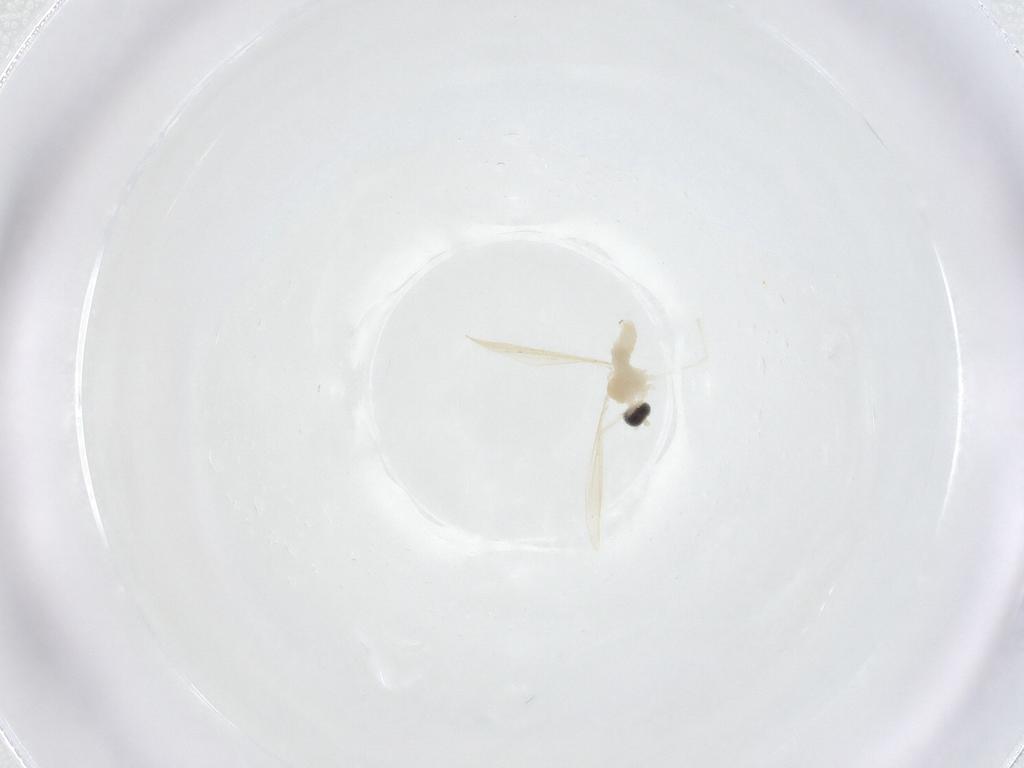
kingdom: Animalia
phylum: Arthropoda
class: Insecta
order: Diptera
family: Cecidomyiidae
